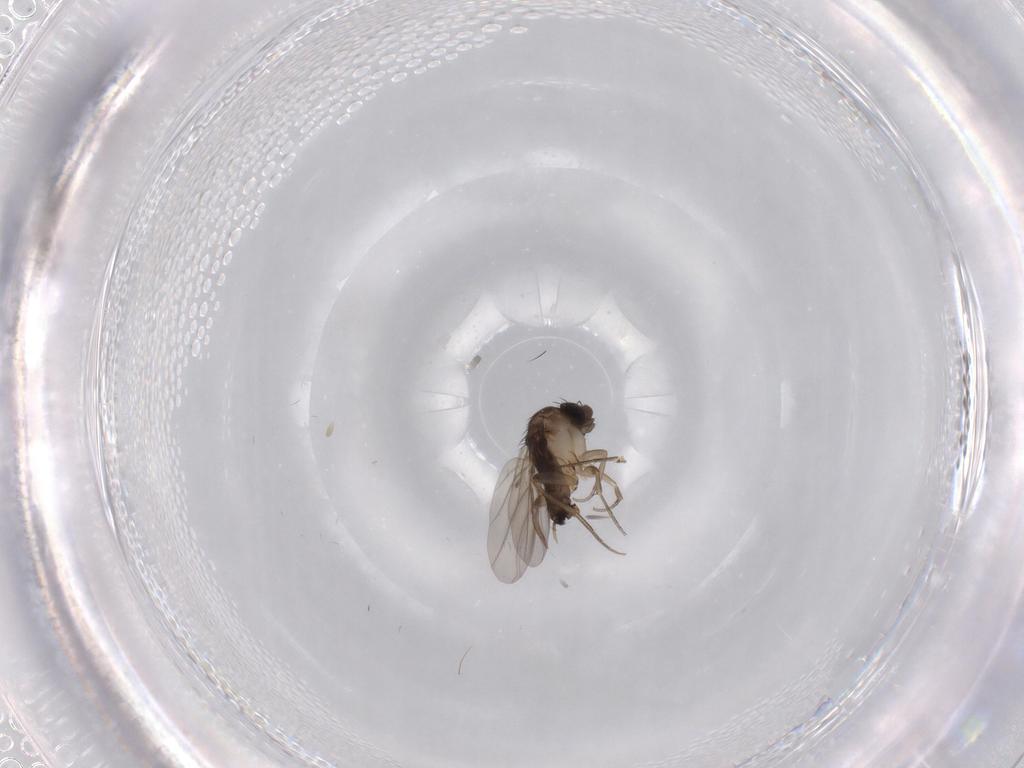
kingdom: Animalia
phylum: Arthropoda
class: Insecta
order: Diptera
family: Phoridae
